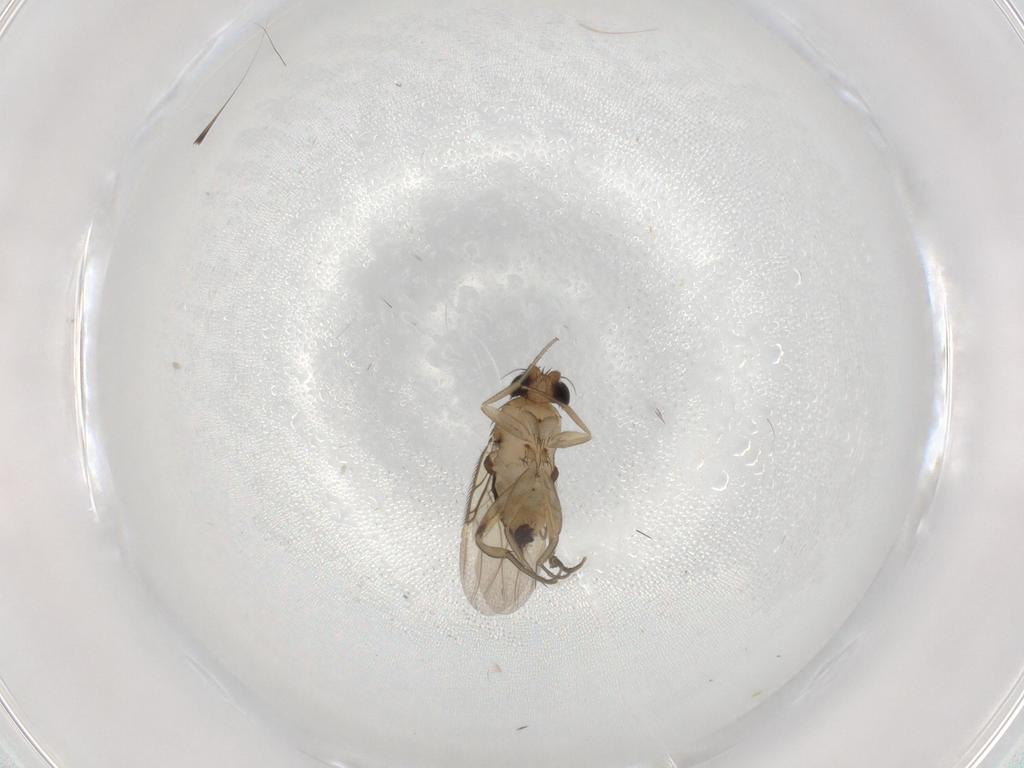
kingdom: Animalia
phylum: Arthropoda
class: Insecta
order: Diptera
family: Phoridae
